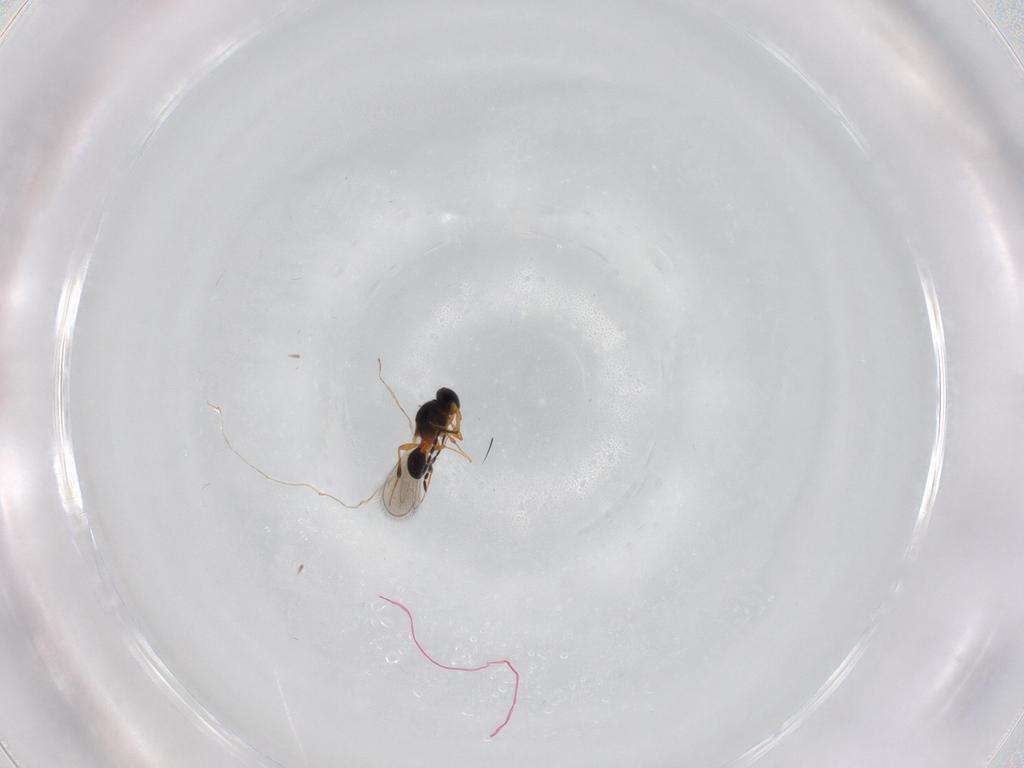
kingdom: Animalia
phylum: Arthropoda
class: Insecta
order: Hymenoptera
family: Platygastridae
